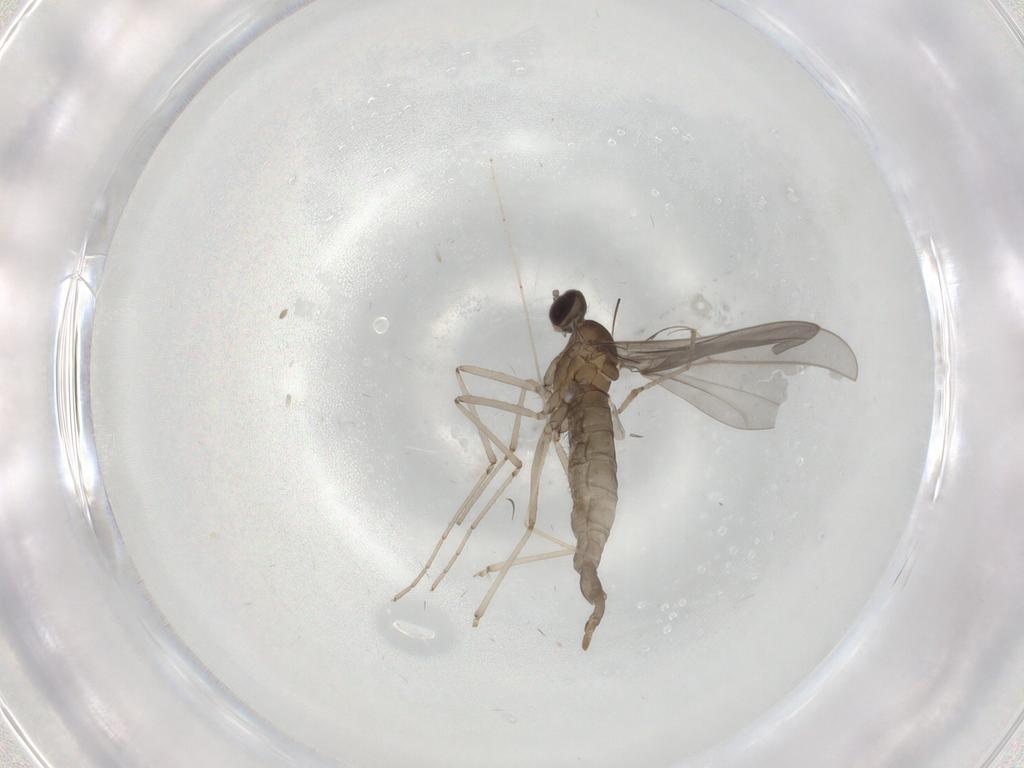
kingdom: Animalia
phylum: Arthropoda
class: Insecta
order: Diptera
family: Cecidomyiidae
